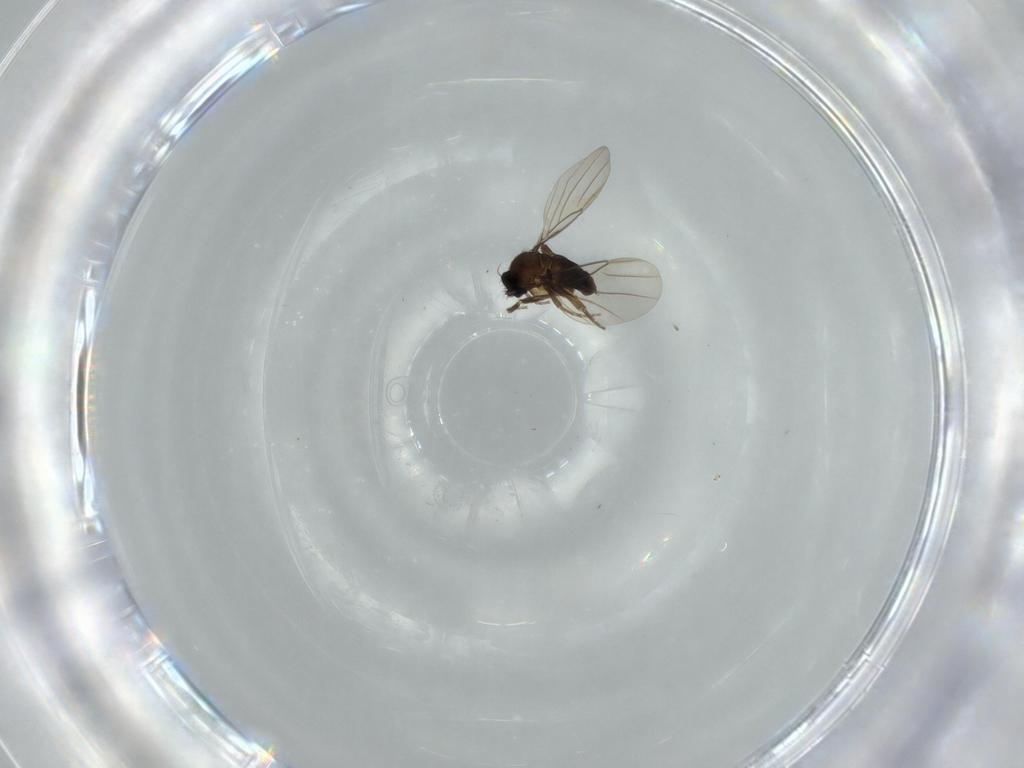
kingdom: Animalia
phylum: Arthropoda
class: Insecta
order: Diptera
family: Phoridae
